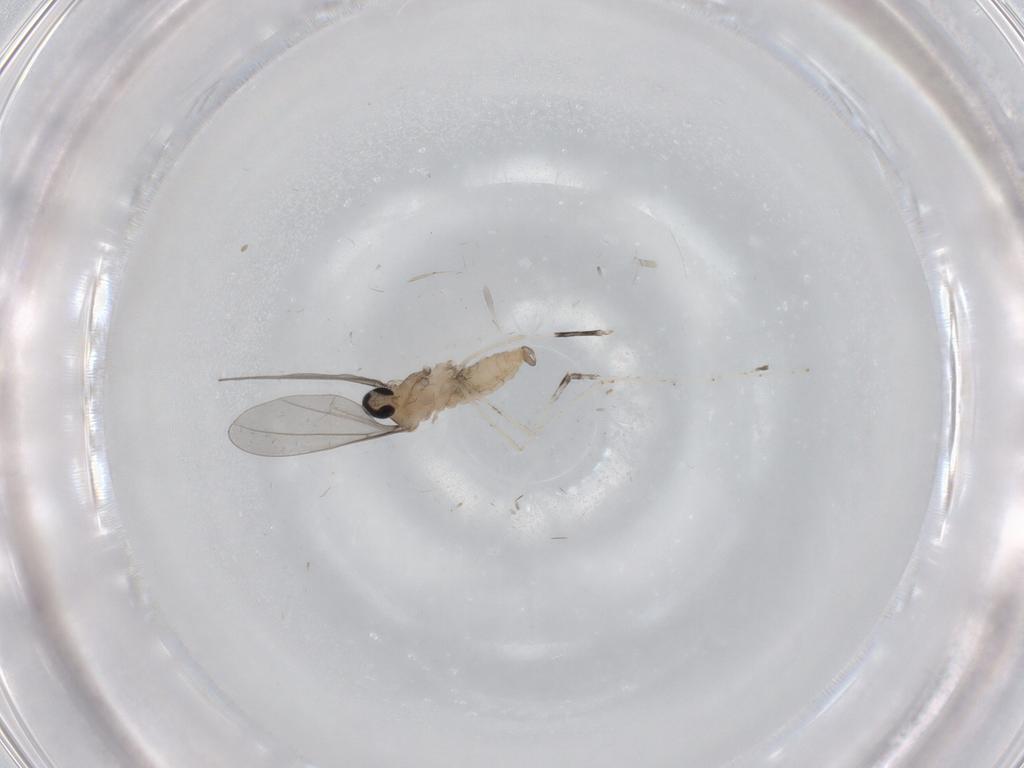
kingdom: Animalia
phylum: Arthropoda
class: Insecta
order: Diptera
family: Cecidomyiidae
